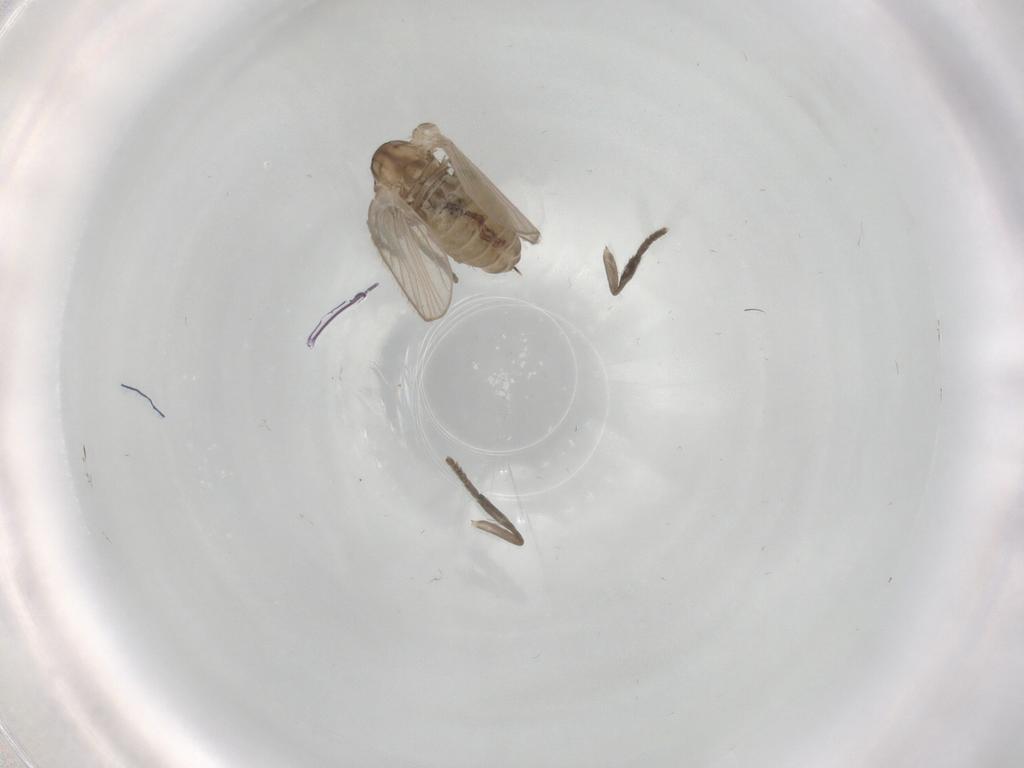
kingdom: Animalia
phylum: Arthropoda
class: Insecta
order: Diptera
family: Psychodidae
